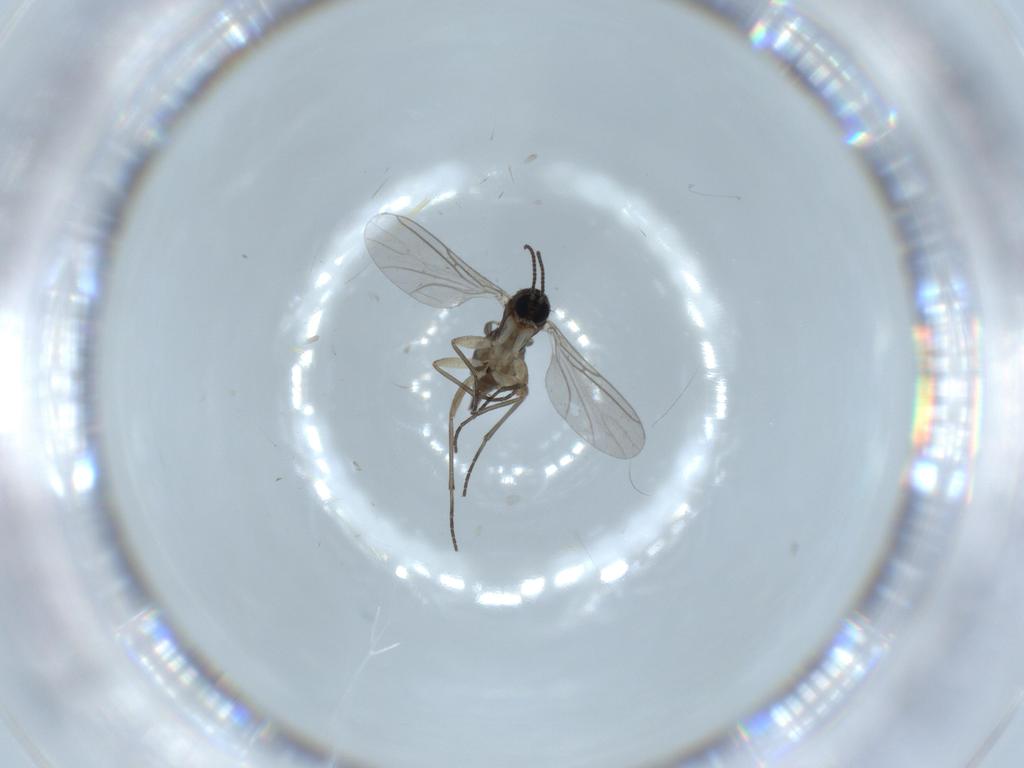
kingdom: Animalia
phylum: Arthropoda
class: Insecta
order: Diptera
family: Sciaridae
